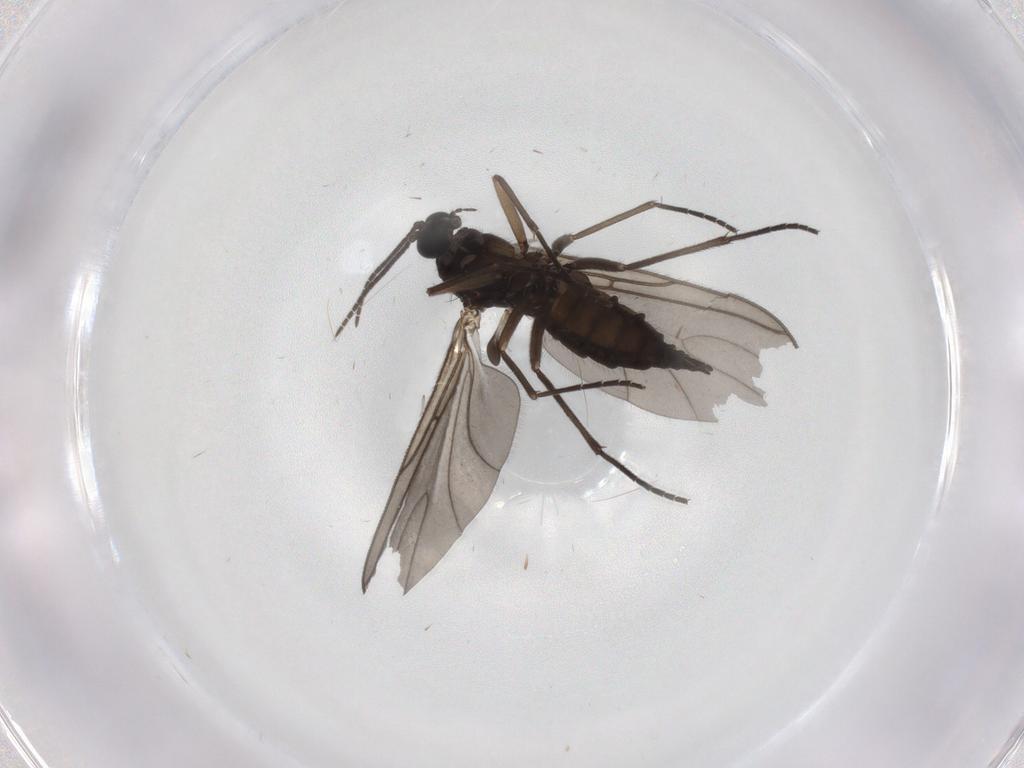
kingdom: Animalia
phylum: Arthropoda
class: Insecta
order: Diptera
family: Sciaridae
